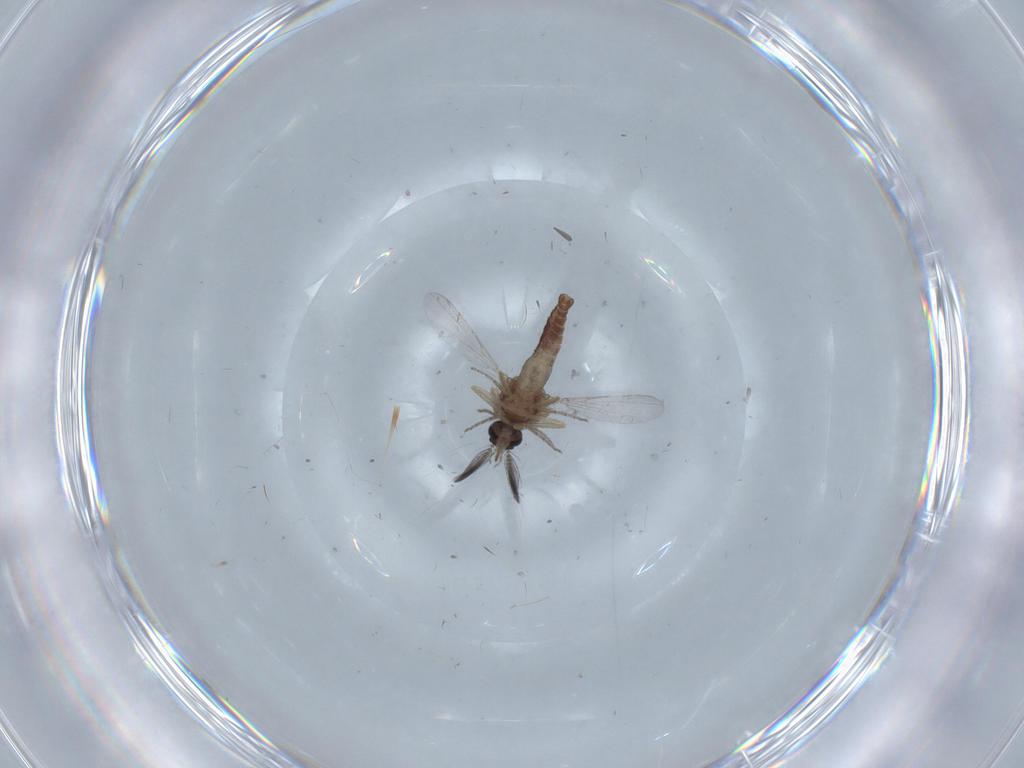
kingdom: Animalia
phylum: Arthropoda
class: Insecta
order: Diptera
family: Ceratopogonidae
